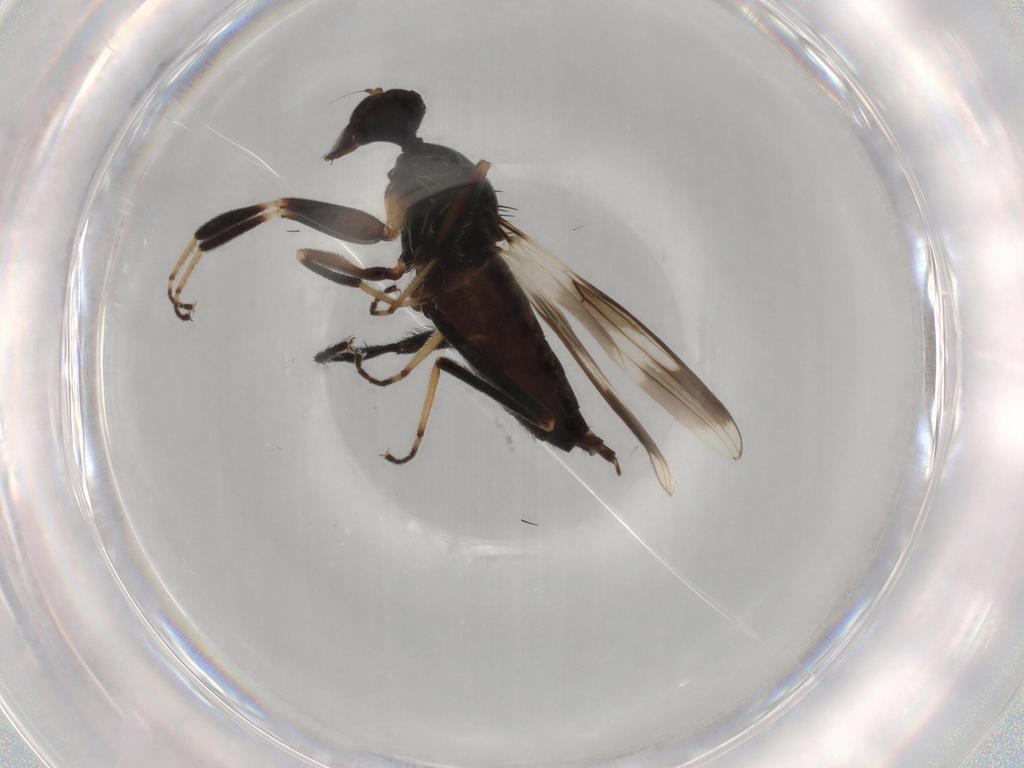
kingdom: Animalia
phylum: Arthropoda
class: Insecta
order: Diptera
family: Hybotidae
